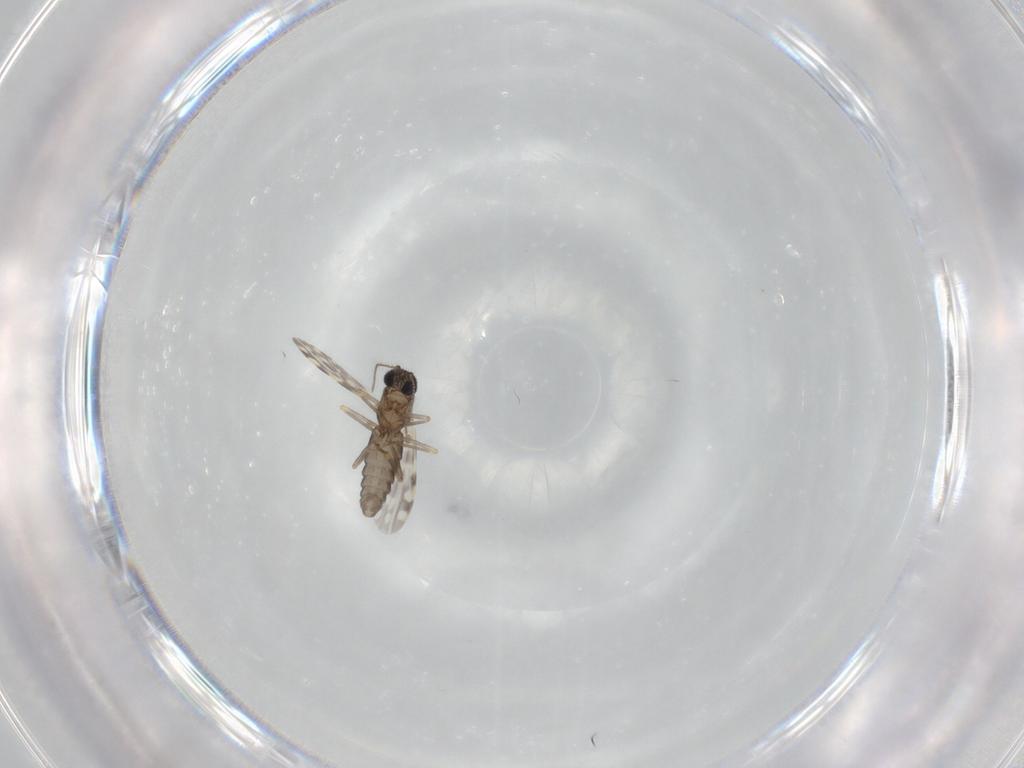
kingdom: Animalia
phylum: Arthropoda
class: Insecta
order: Diptera
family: Ceratopogonidae
